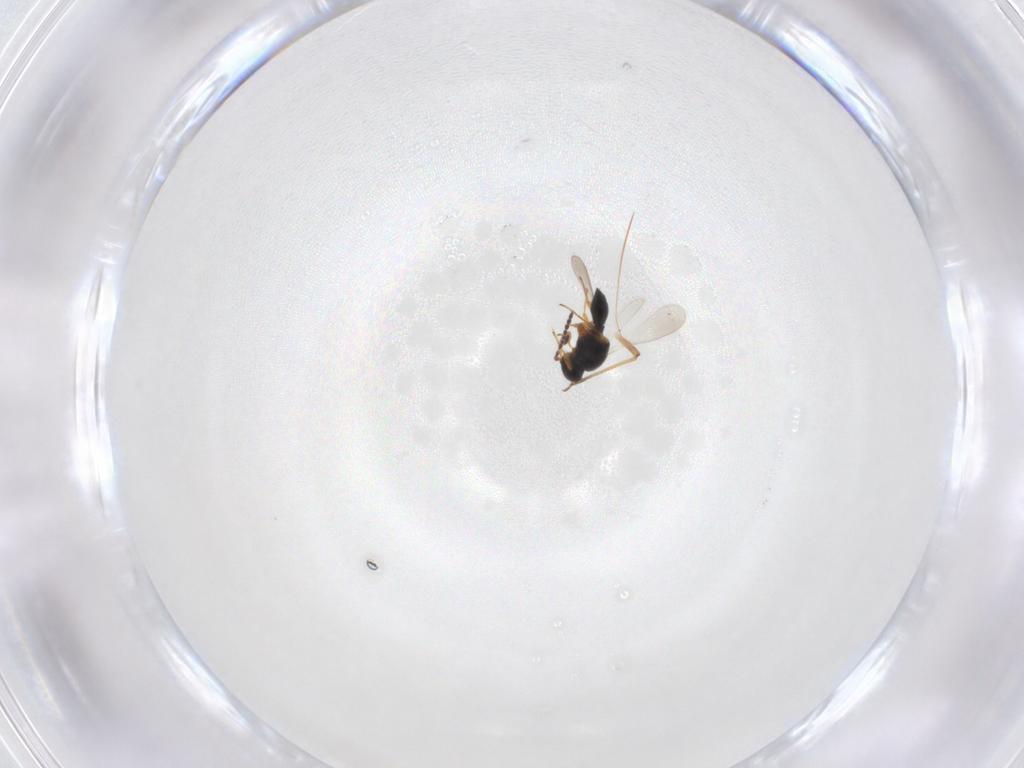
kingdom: Animalia
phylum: Arthropoda
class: Insecta
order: Hymenoptera
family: Platygastridae
